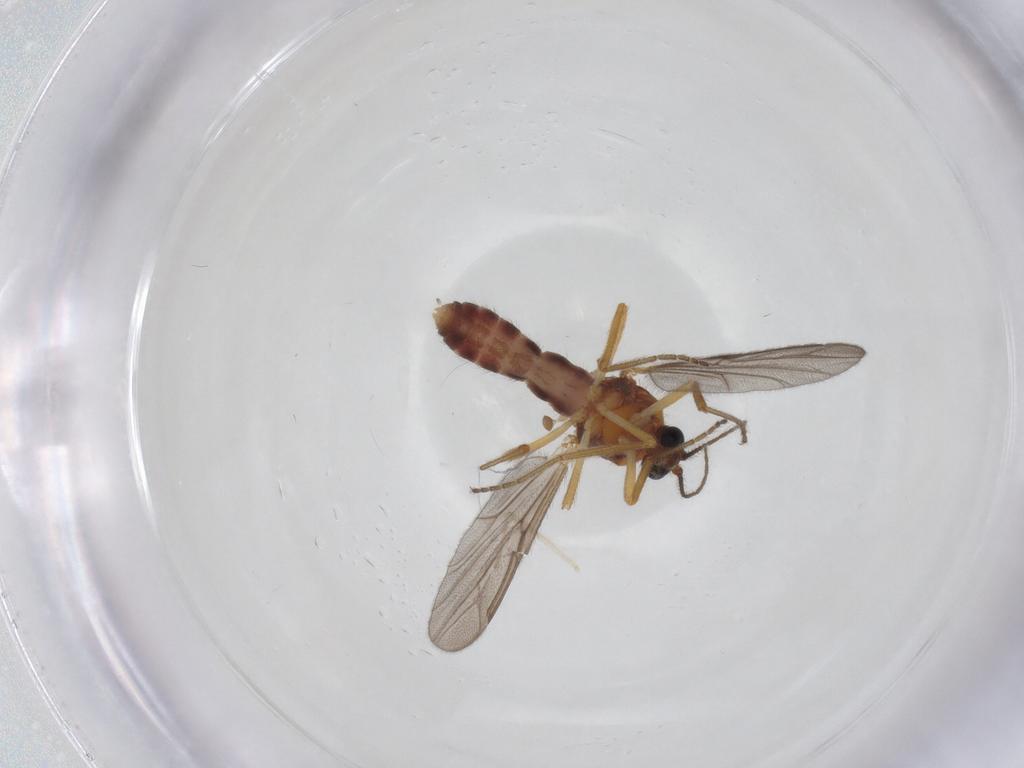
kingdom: Animalia
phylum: Arthropoda
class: Insecta
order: Diptera
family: Ceratopogonidae
